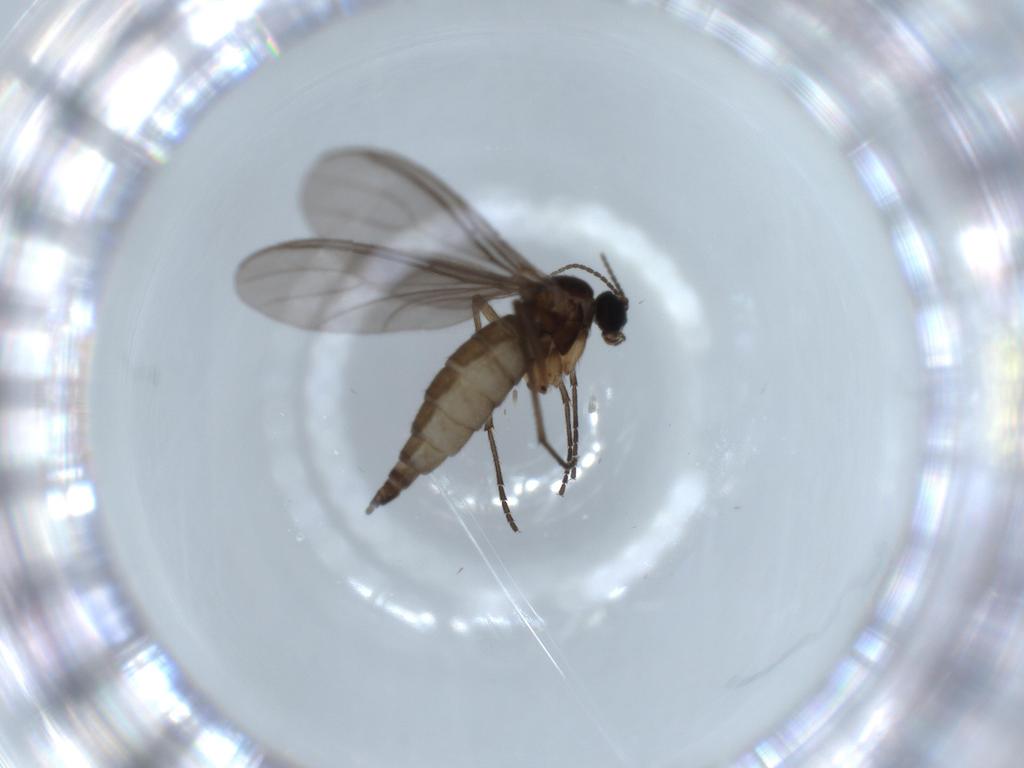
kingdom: Animalia
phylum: Arthropoda
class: Insecta
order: Diptera
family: Sciaridae
